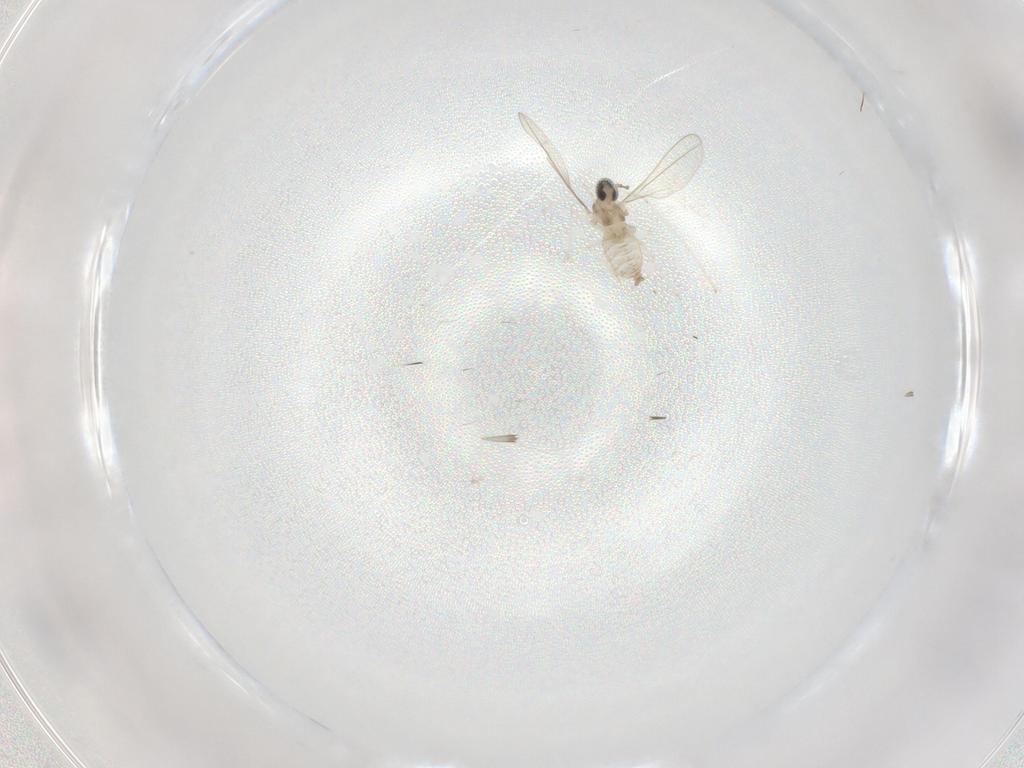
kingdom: Animalia
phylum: Arthropoda
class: Insecta
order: Diptera
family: Cecidomyiidae
